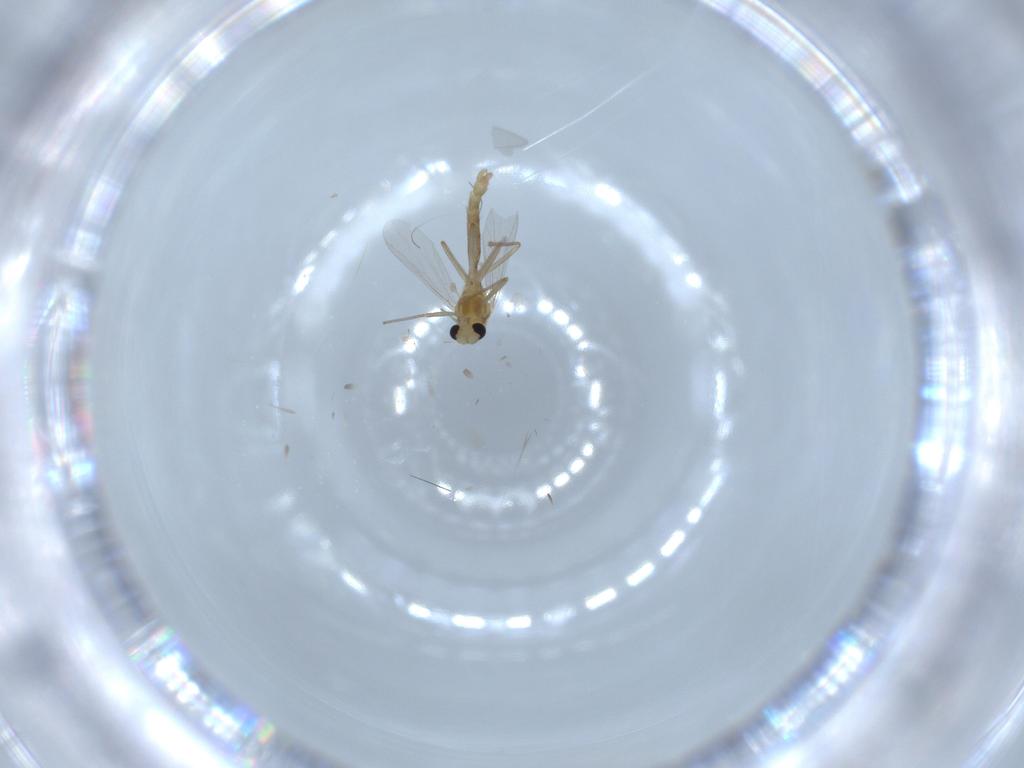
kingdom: Animalia
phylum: Arthropoda
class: Insecta
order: Diptera
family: Chironomidae
